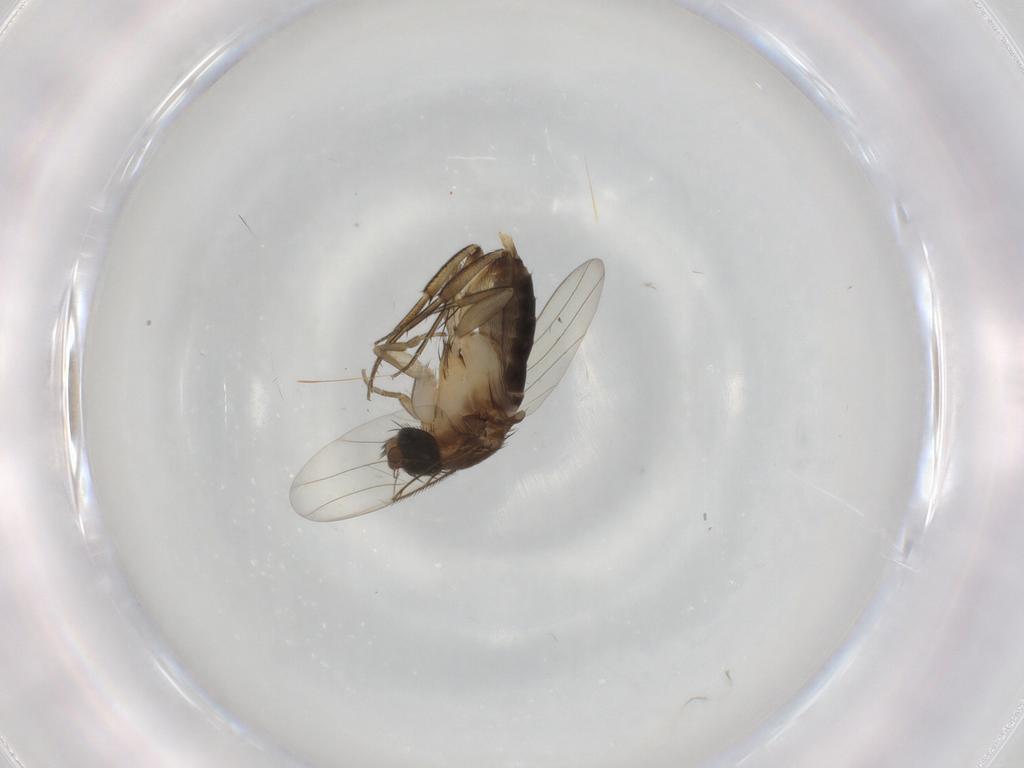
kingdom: Animalia
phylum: Arthropoda
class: Insecta
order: Diptera
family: Phoridae
